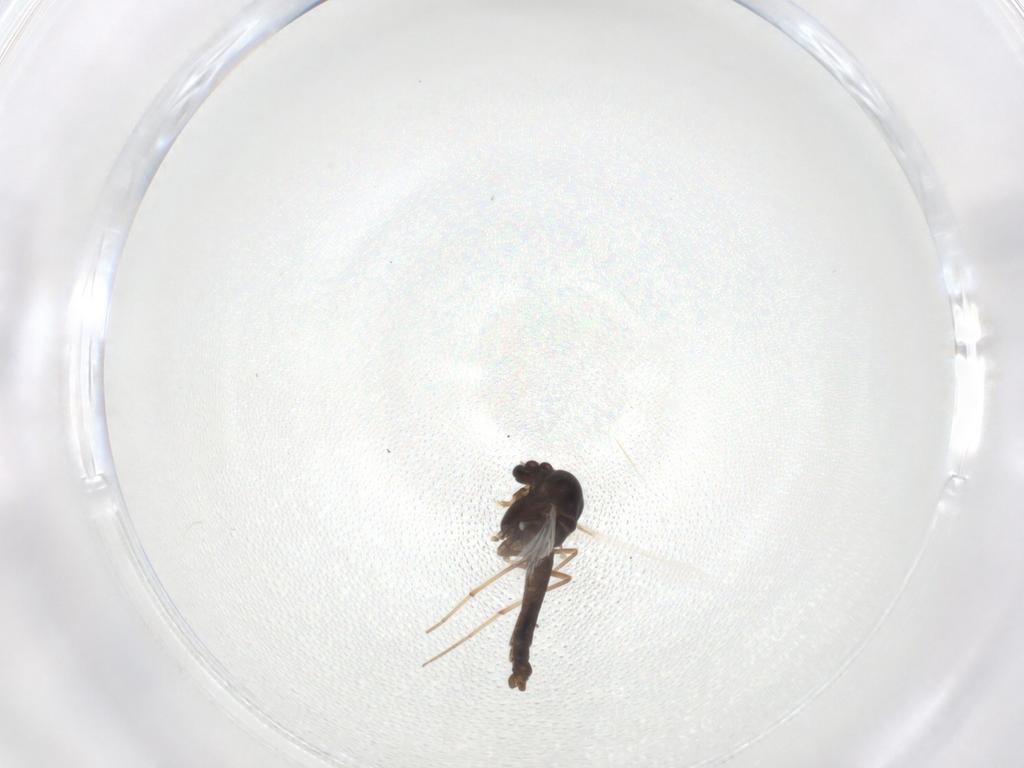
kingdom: Animalia
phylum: Arthropoda
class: Insecta
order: Diptera
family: Chironomidae
